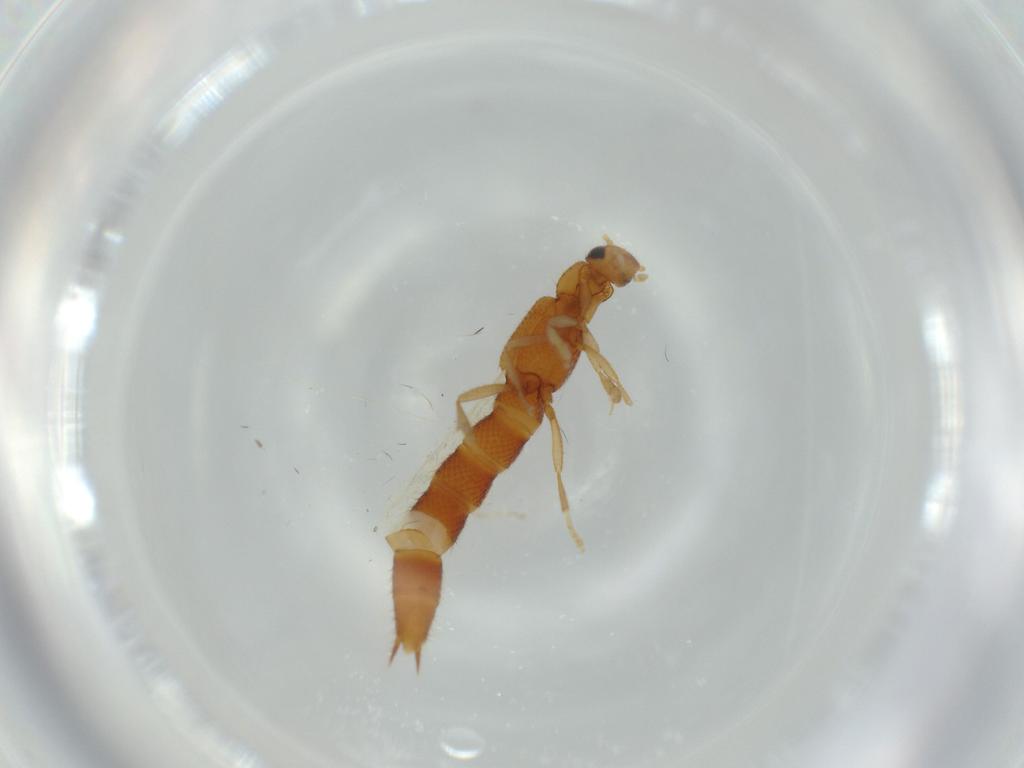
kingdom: Animalia
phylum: Arthropoda
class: Insecta
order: Coleoptera
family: Staphylinidae
